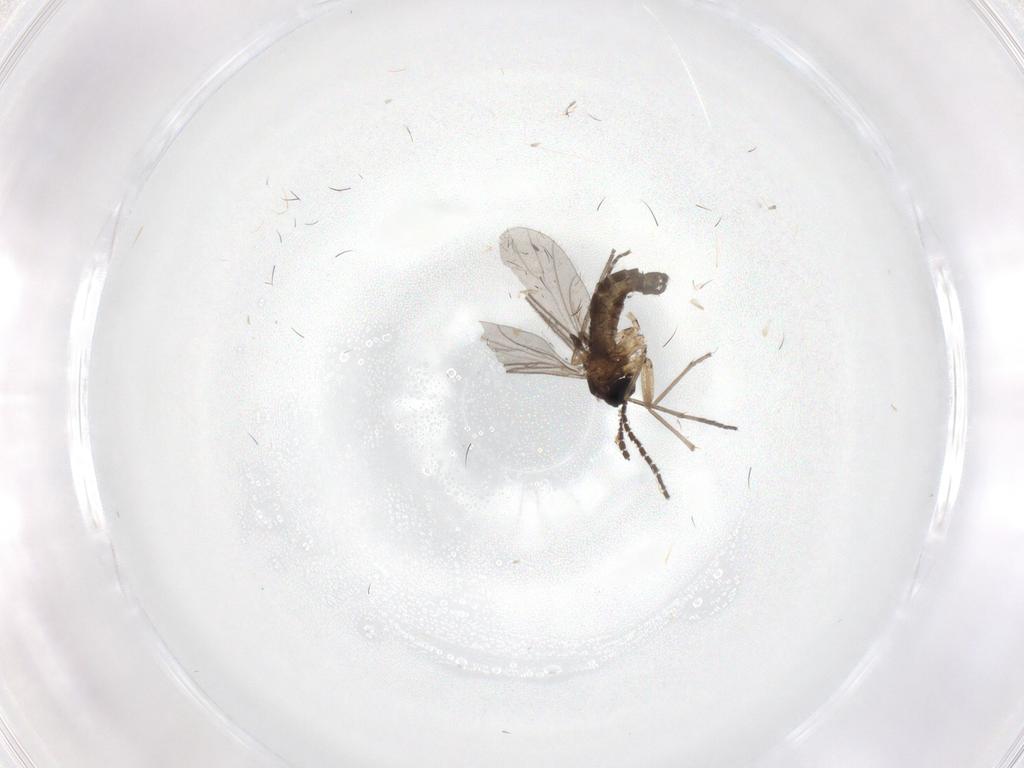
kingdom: Animalia
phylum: Arthropoda
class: Insecta
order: Diptera
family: Sciaridae
